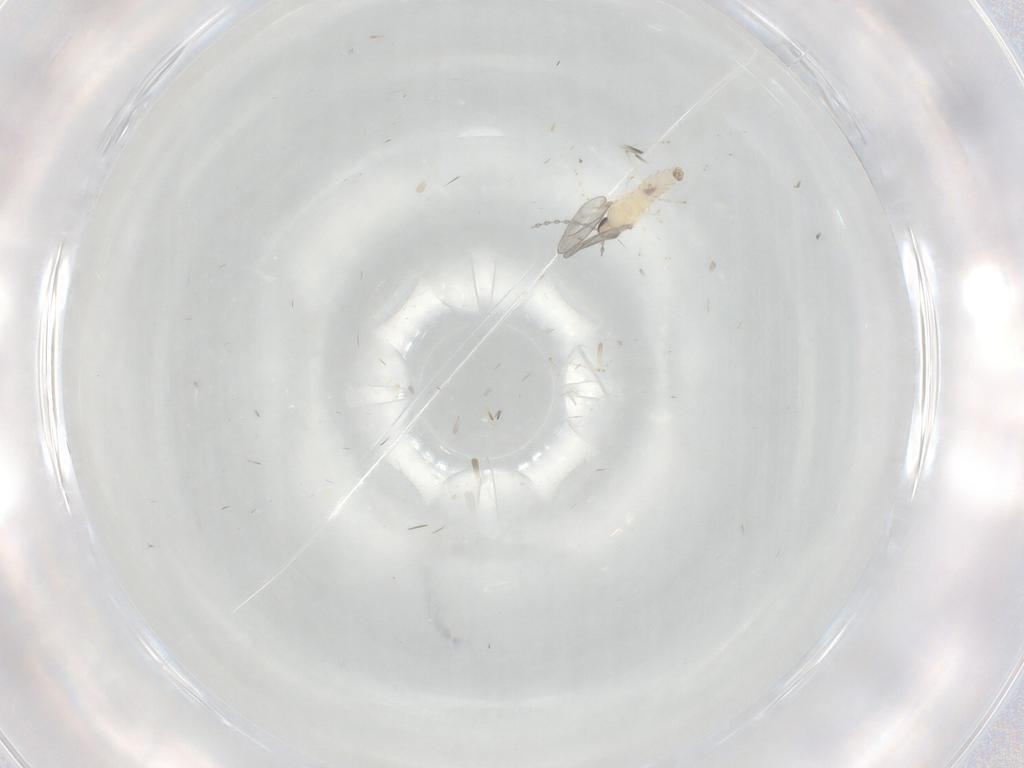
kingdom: Animalia
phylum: Arthropoda
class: Insecta
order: Diptera
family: Cecidomyiidae
